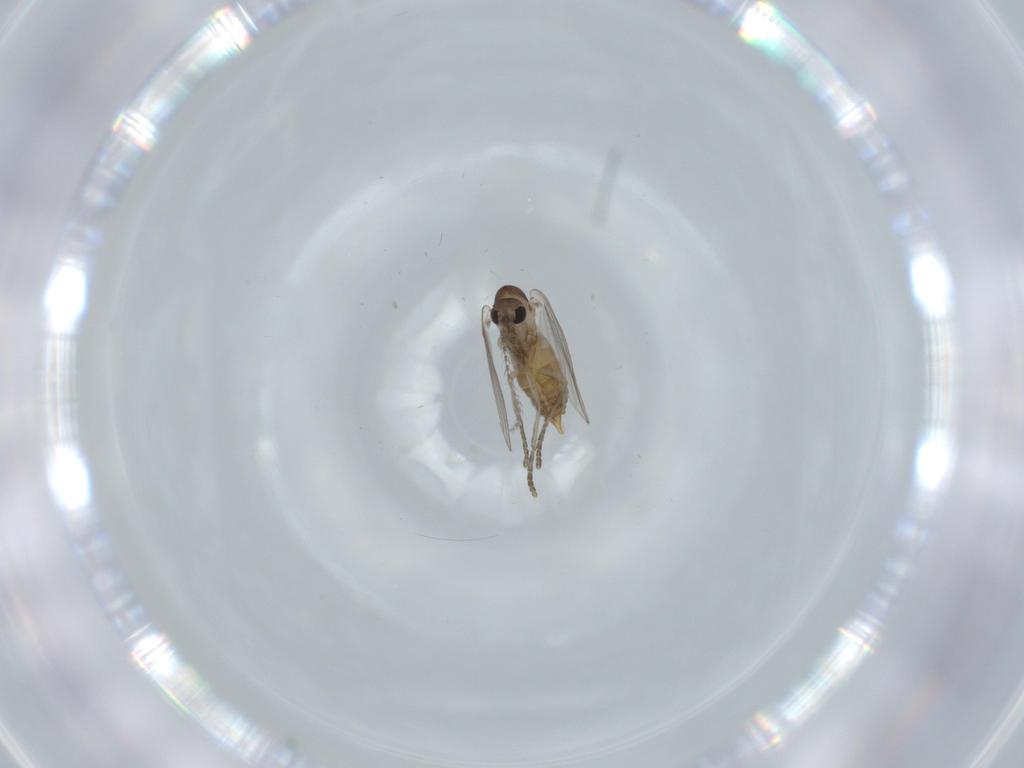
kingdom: Animalia
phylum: Arthropoda
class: Insecta
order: Diptera
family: Psychodidae
